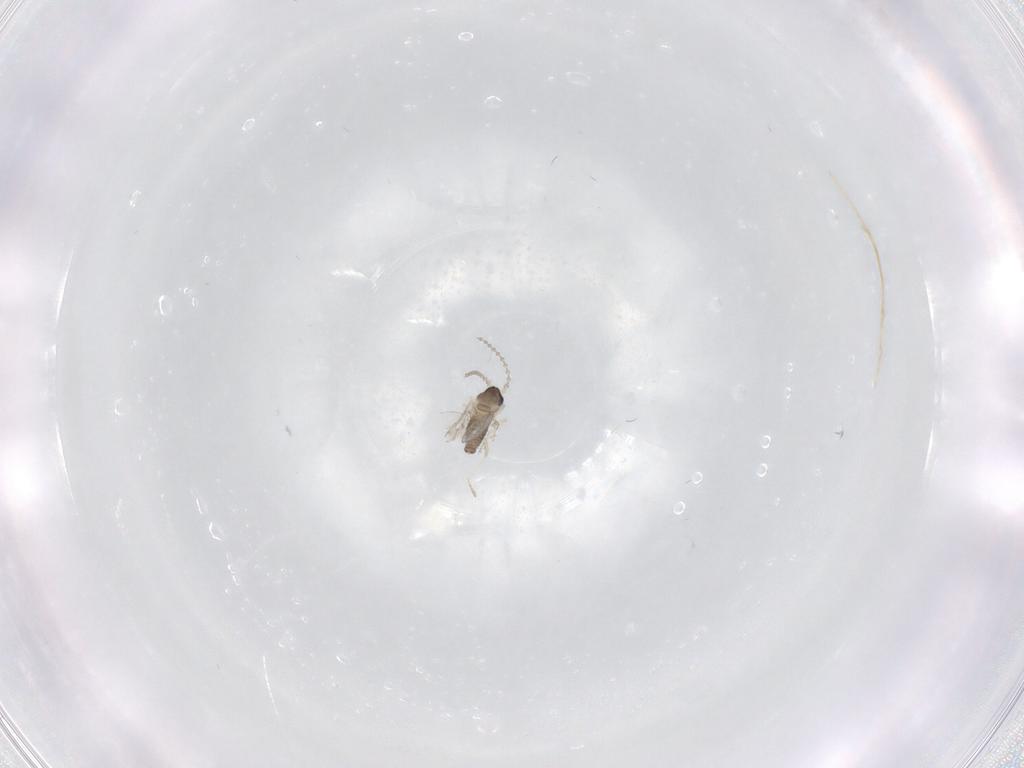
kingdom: Animalia
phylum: Arthropoda
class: Insecta
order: Diptera
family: Cecidomyiidae
